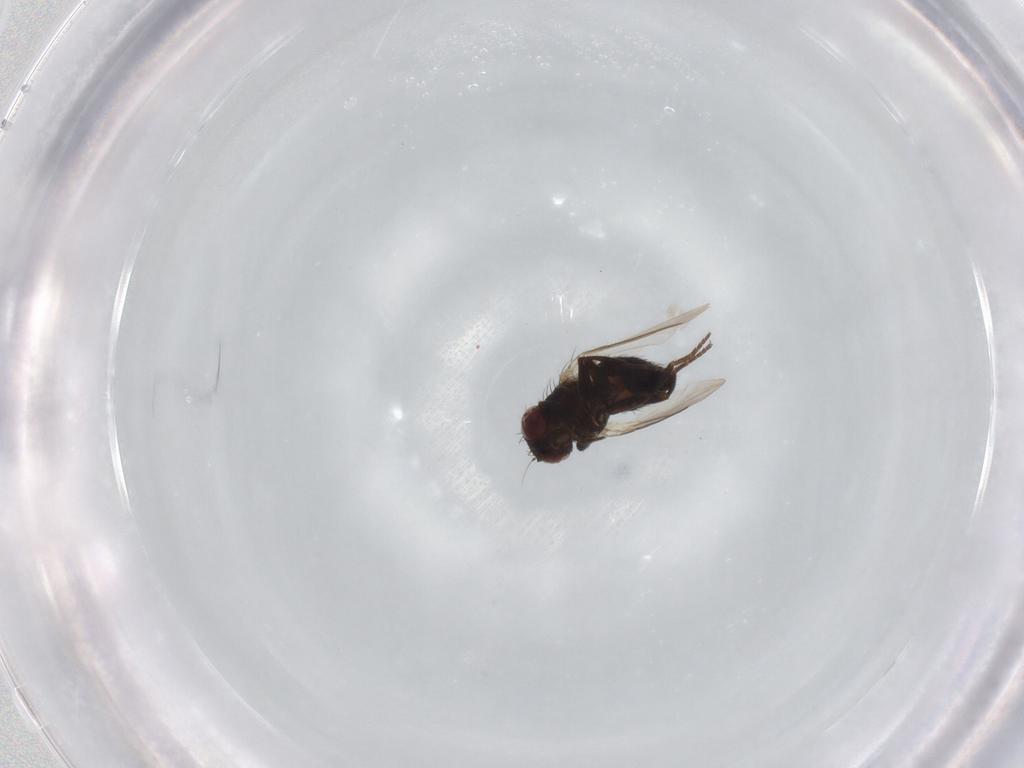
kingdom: Animalia
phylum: Arthropoda
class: Insecta
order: Diptera
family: Agromyzidae
